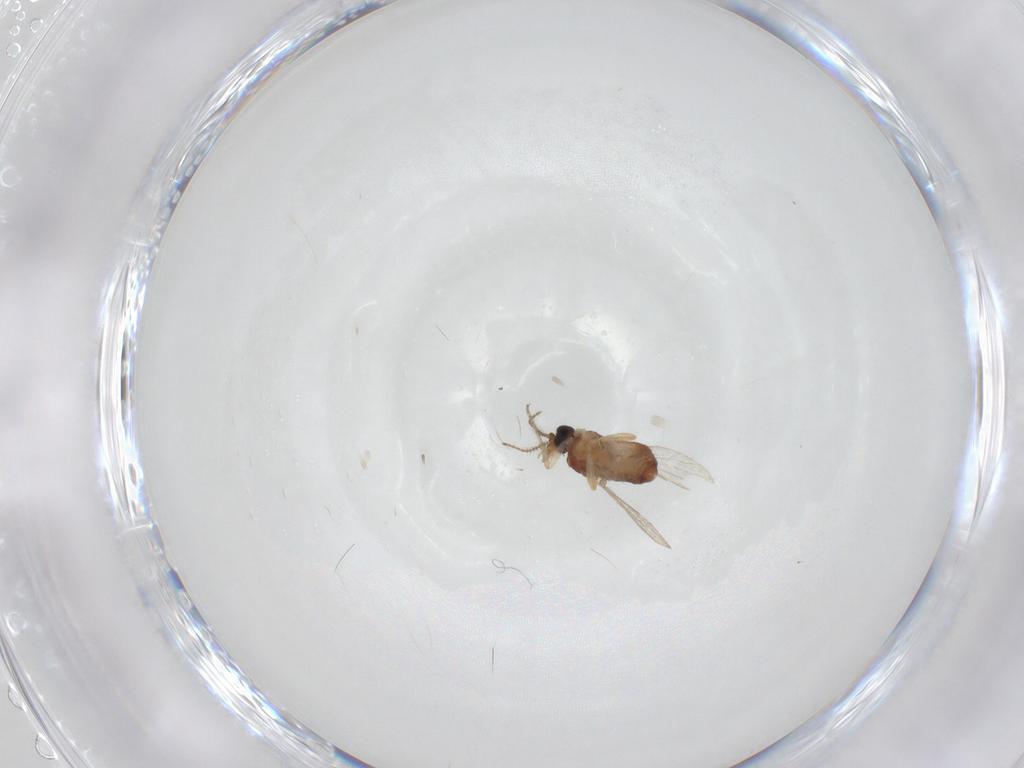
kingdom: Animalia
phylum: Arthropoda
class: Insecta
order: Diptera
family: Ceratopogonidae
